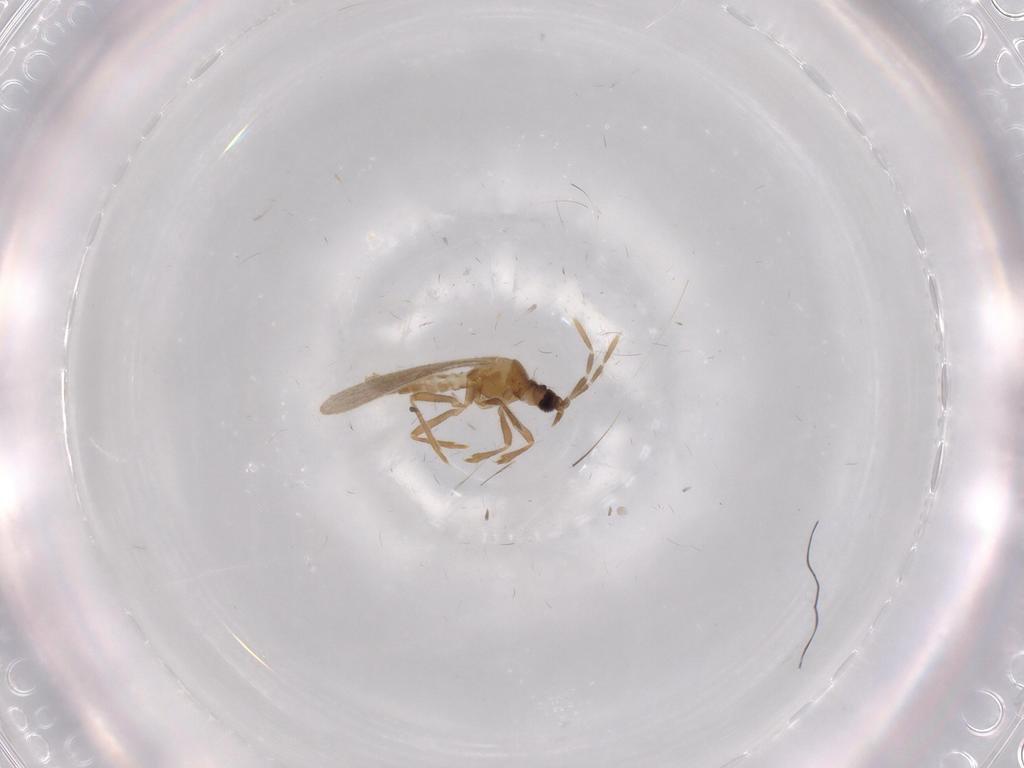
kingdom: Animalia
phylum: Arthropoda
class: Insecta
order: Hemiptera
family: Enicocephalidae
